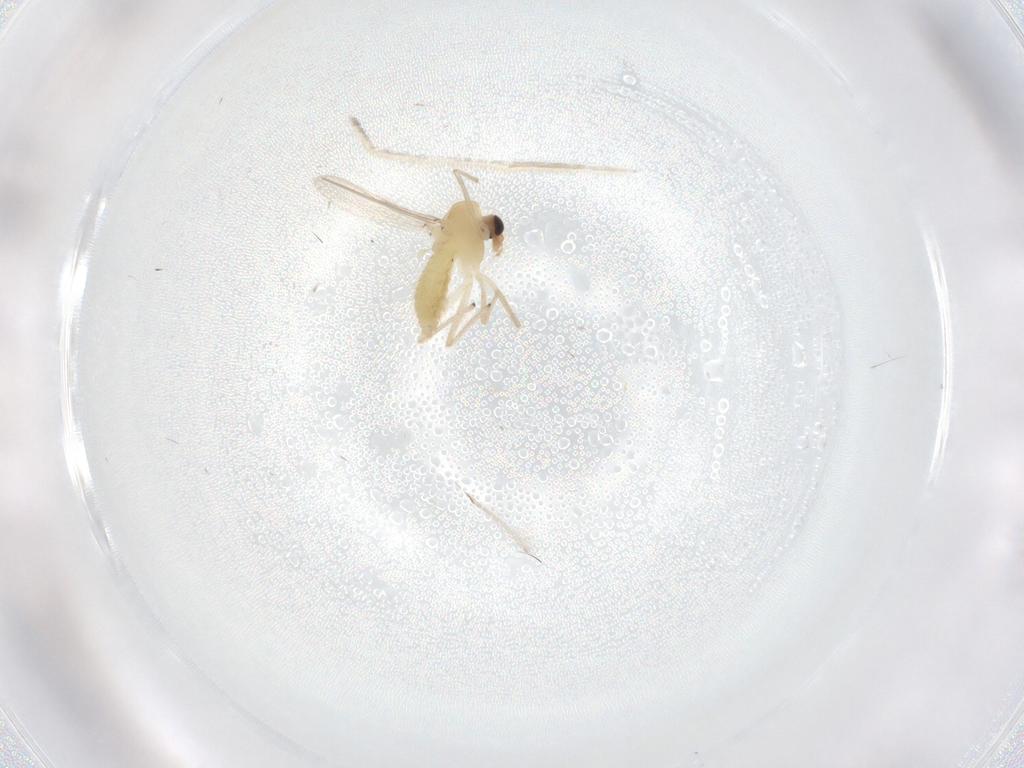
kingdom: Animalia
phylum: Arthropoda
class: Insecta
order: Diptera
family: Chironomidae
